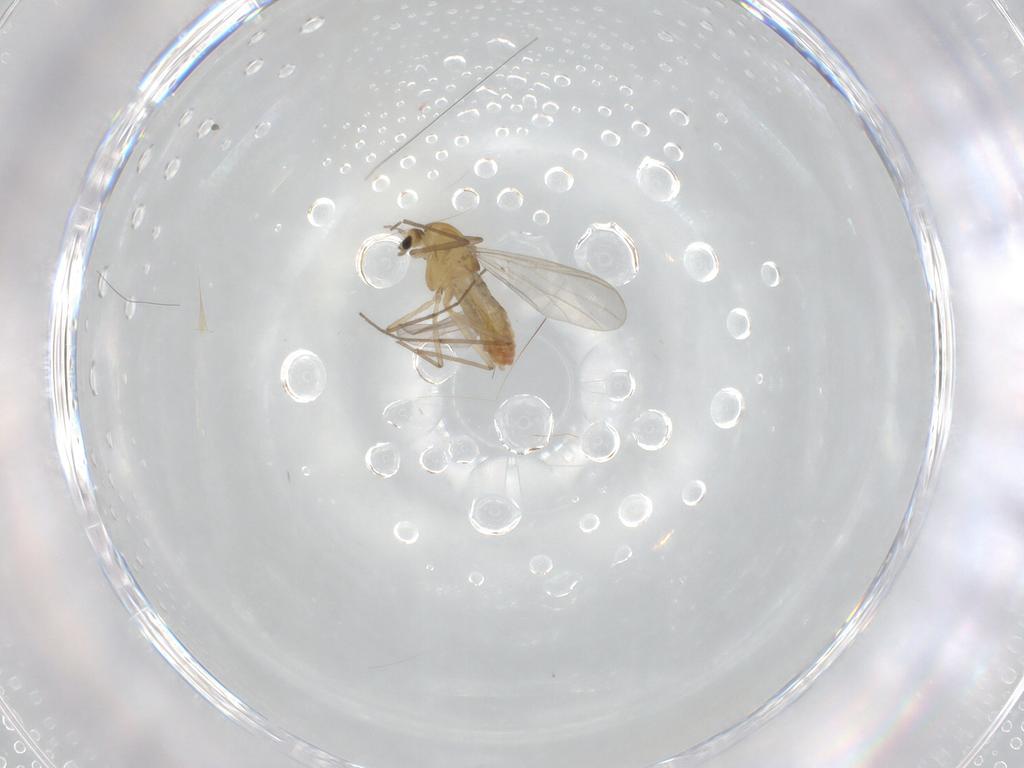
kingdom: Animalia
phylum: Arthropoda
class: Insecta
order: Diptera
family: Chironomidae
